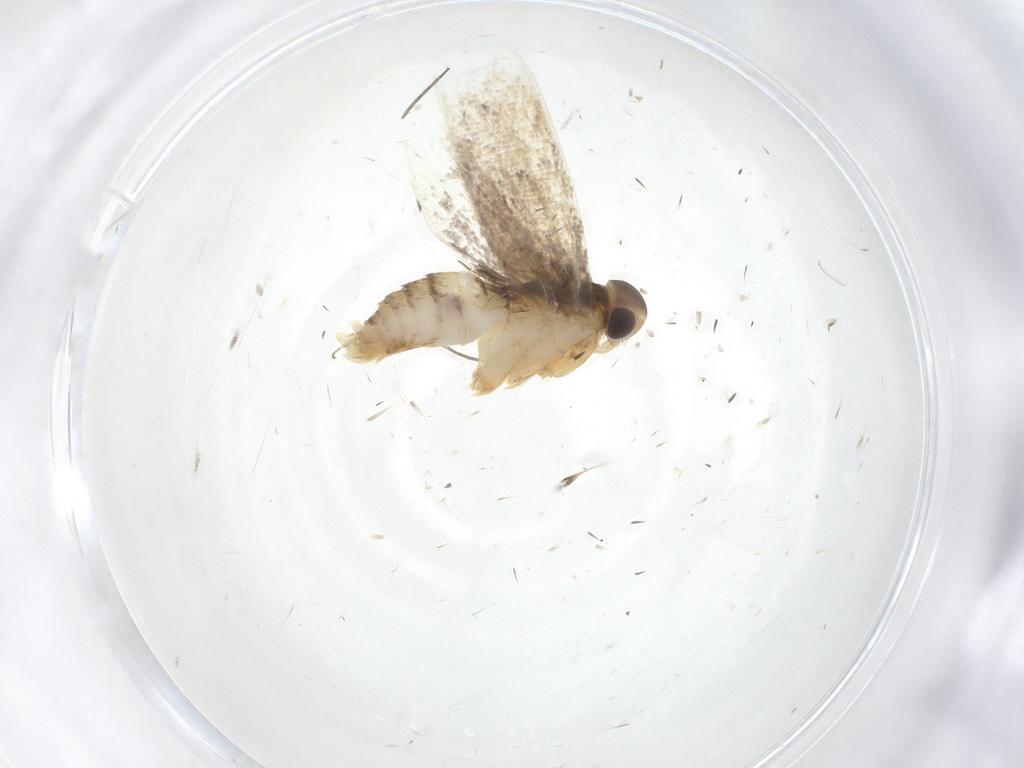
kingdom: Animalia
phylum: Arthropoda
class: Insecta
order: Lepidoptera
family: Oecophoridae
